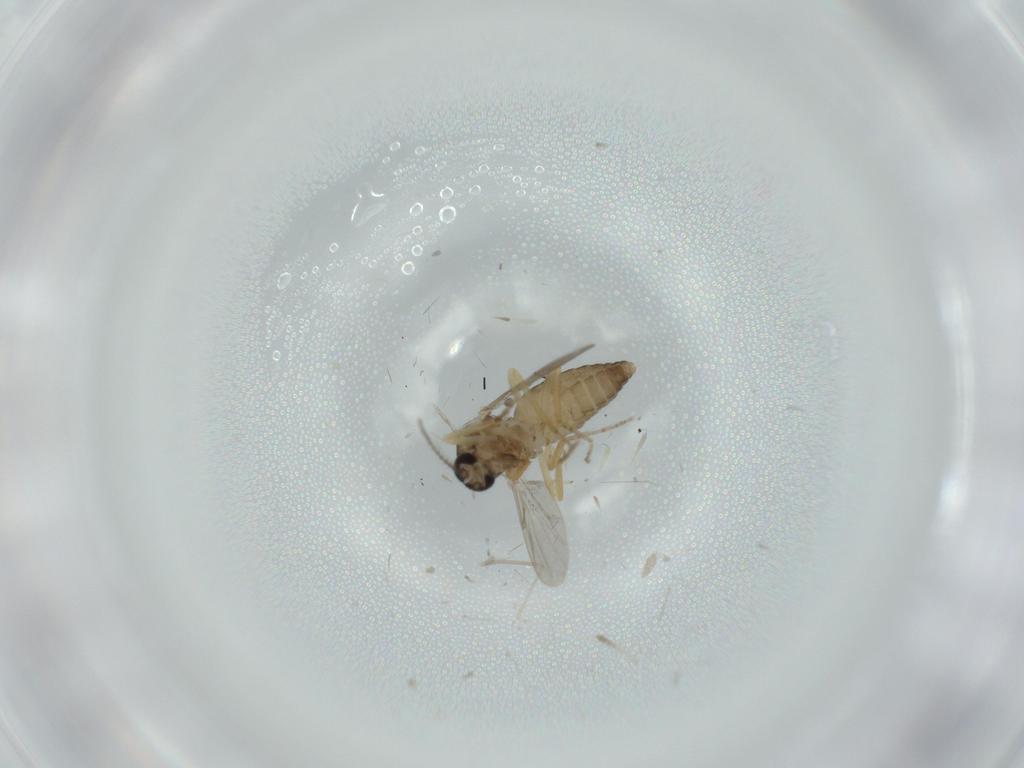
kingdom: Animalia
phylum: Arthropoda
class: Insecta
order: Diptera
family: Ceratopogonidae
